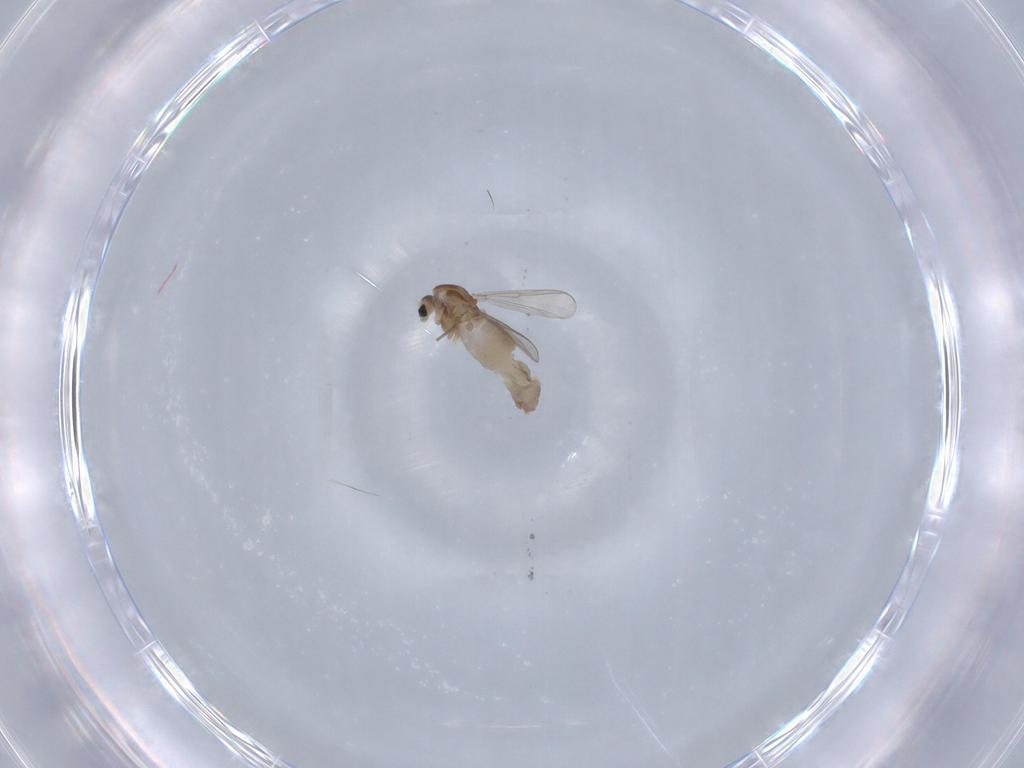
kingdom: Animalia
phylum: Arthropoda
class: Insecta
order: Diptera
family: Chironomidae
